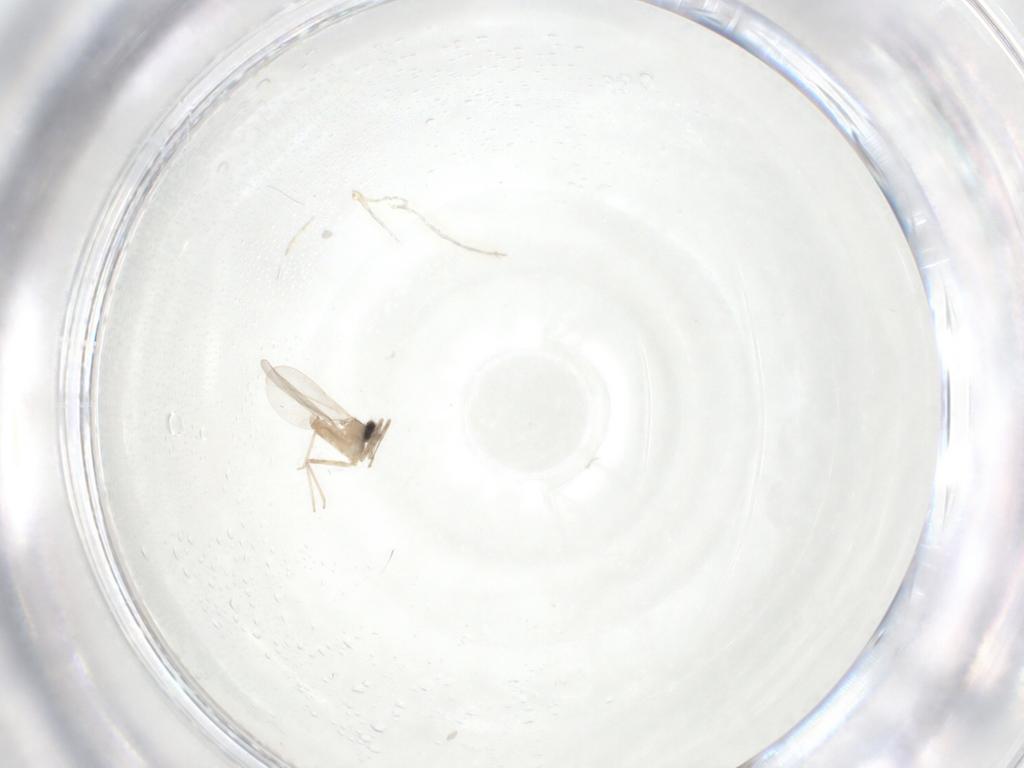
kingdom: Animalia
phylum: Arthropoda
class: Insecta
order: Diptera
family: Cecidomyiidae
